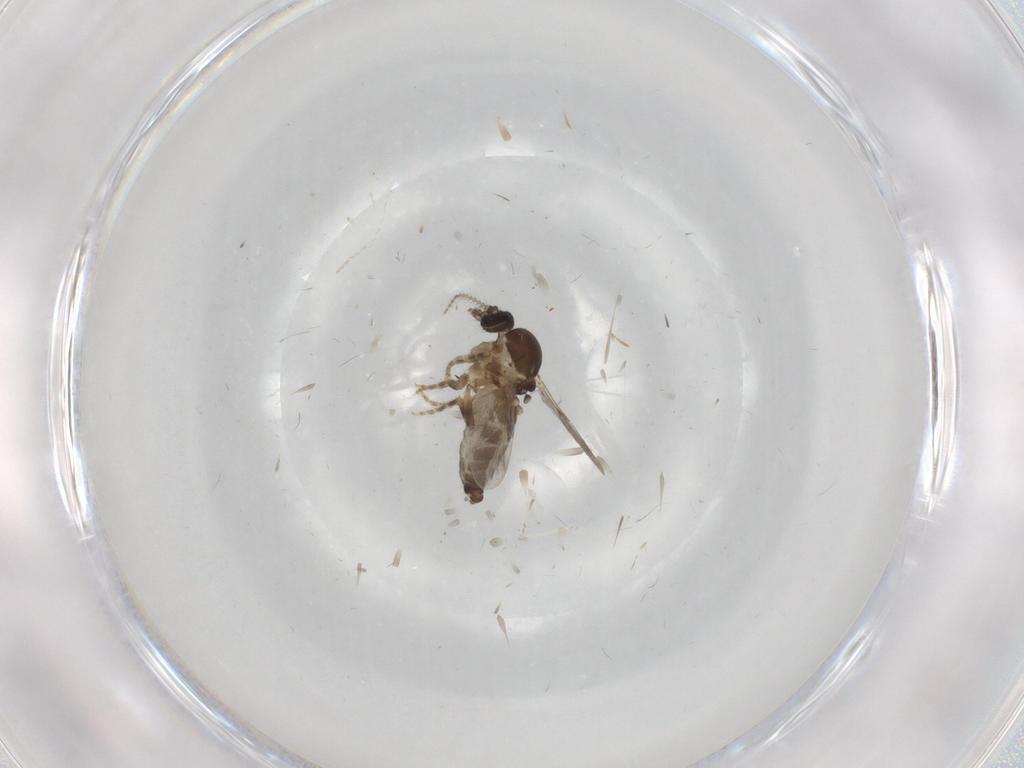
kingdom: Animalia
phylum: Arthropoda
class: Insecta
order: Diptera
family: Ceratopogonidae
